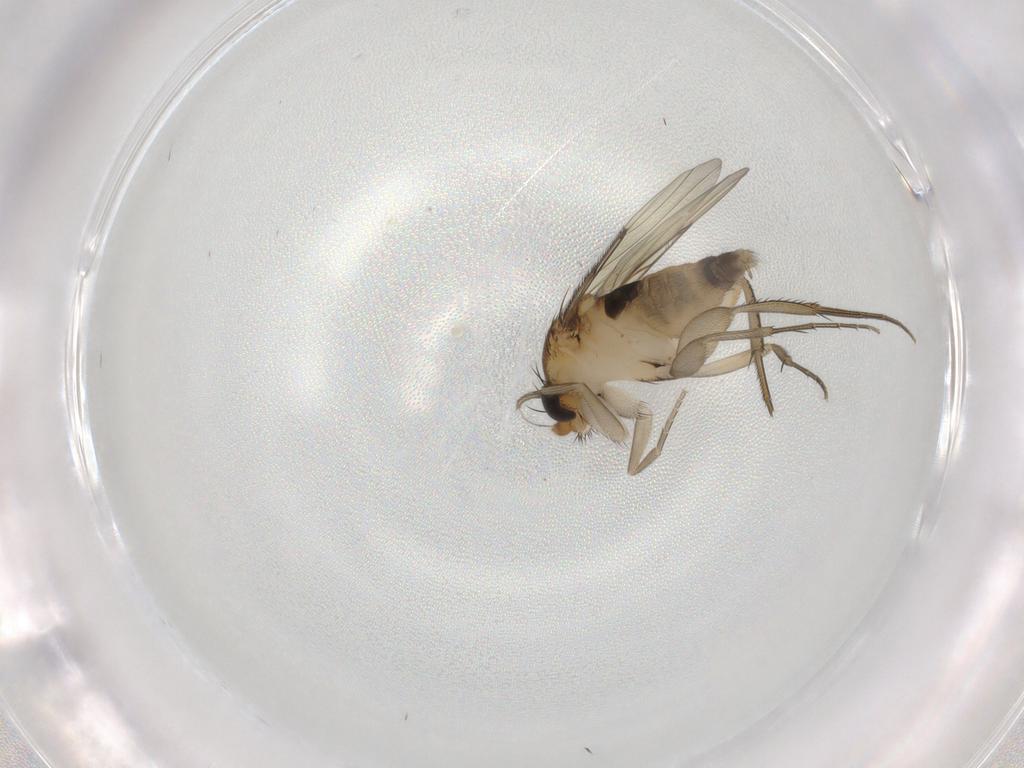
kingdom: Animalia
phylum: Arthropoda
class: Insecta
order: Diptera
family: Phoridae
